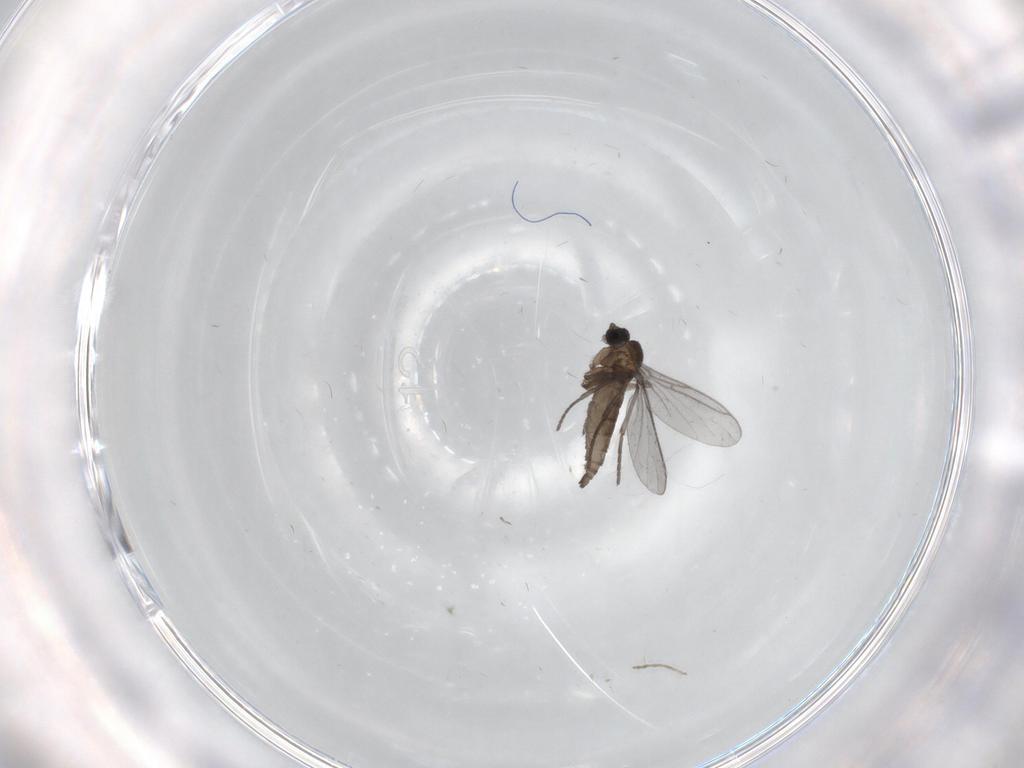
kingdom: Animalia
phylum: Arthropoda
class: Insecta
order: Diptera
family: Chironomidae
